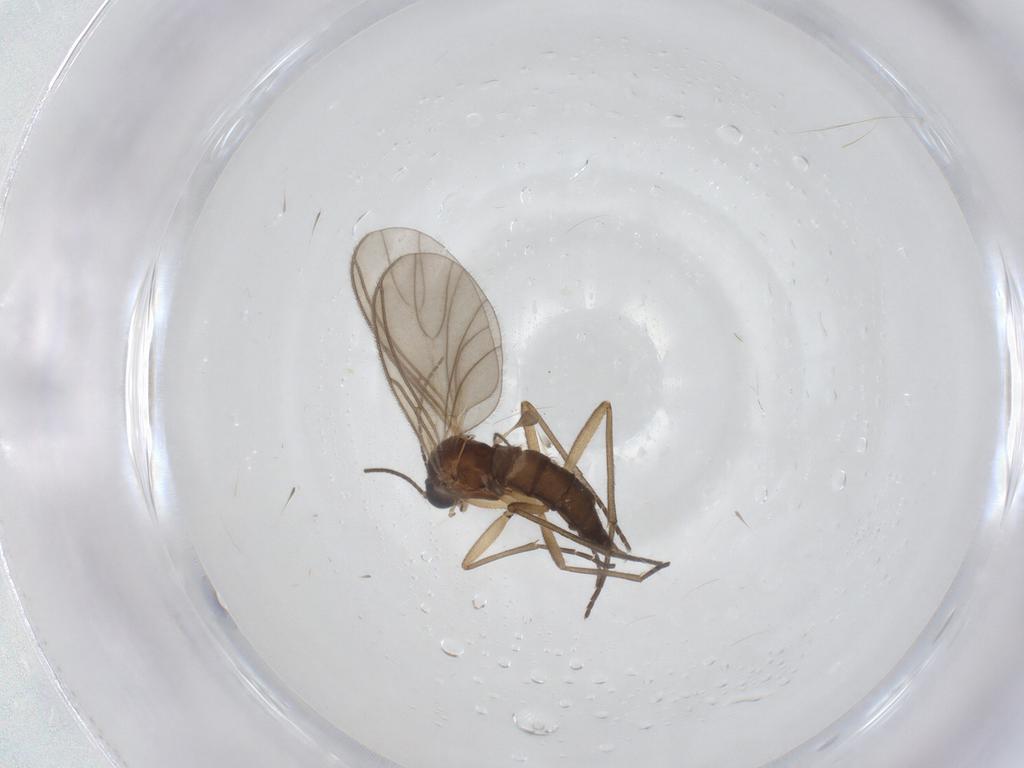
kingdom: Animalia
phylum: Arthropoda
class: Insecta
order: Diptera
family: Sciaridae
